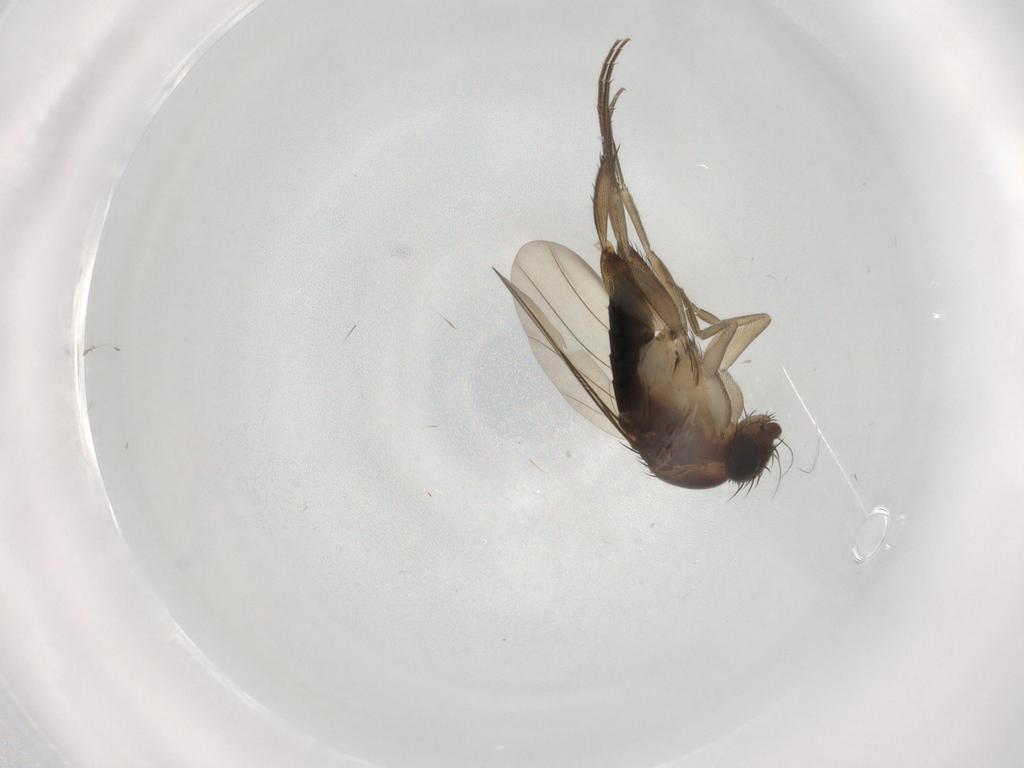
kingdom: Animalia
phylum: Arthropoda
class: Insecta
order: Diptera
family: Phoridae
